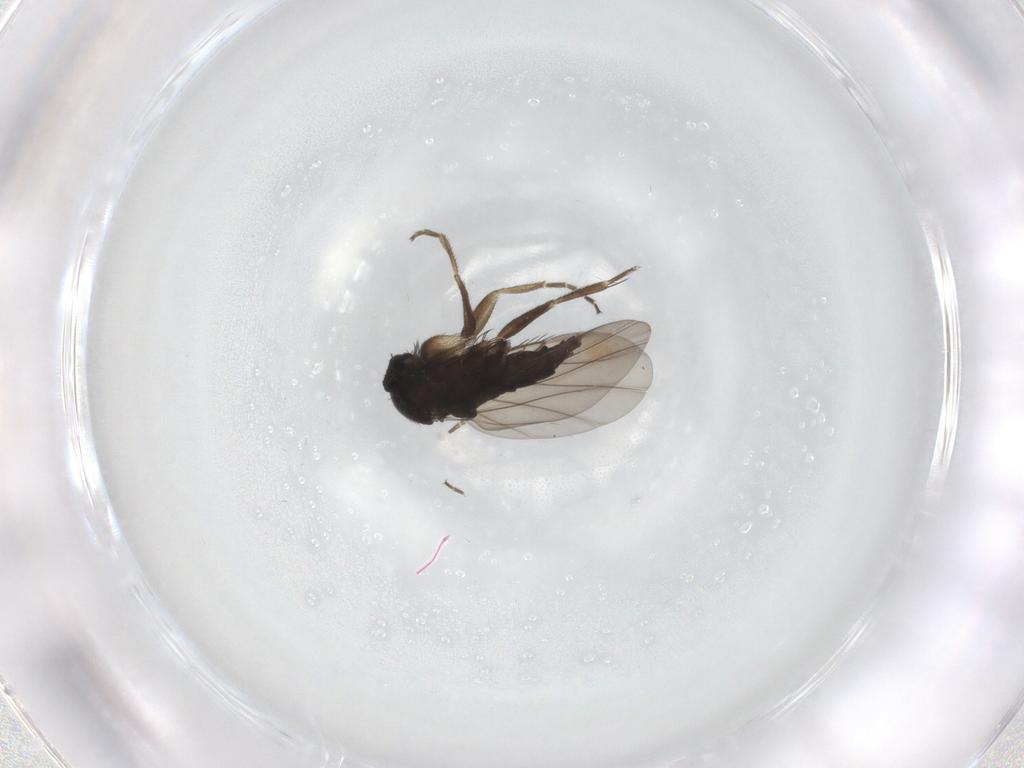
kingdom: Animalia
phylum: Arthropoda
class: Insecta
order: Diptera
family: Phoridae
